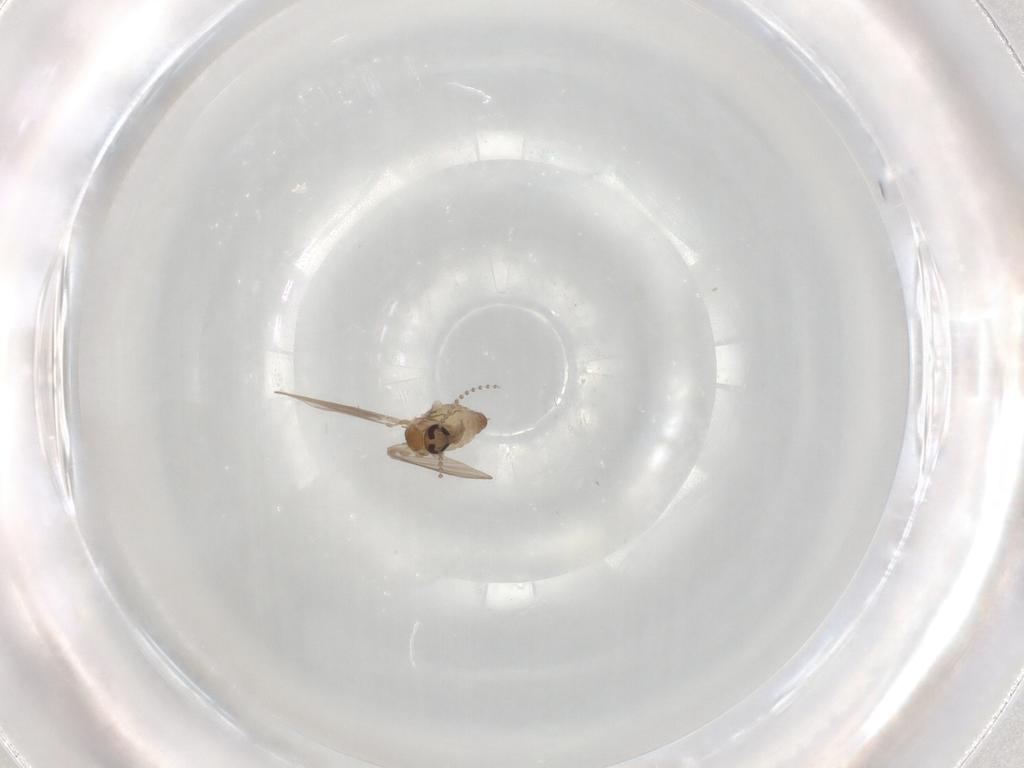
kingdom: Animalia
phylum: Arthropoda
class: Insecta
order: Diptera
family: Psychodidae
